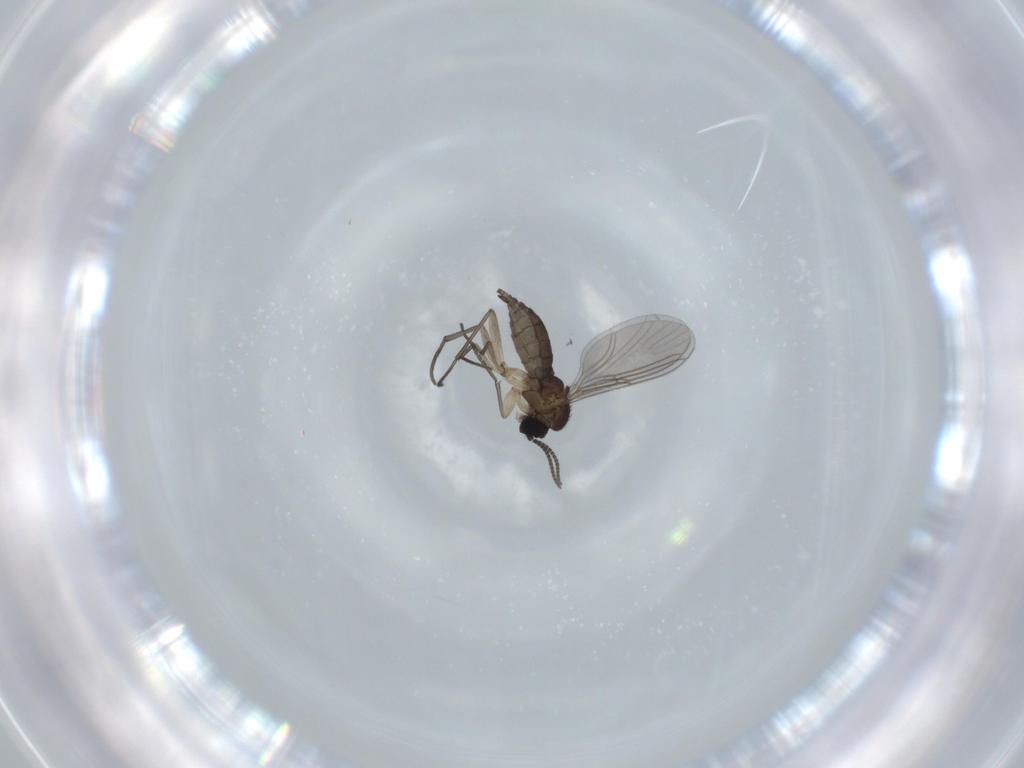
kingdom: Animalia
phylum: Arthropoda
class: Insecta
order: Diptera
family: Sciaridae
